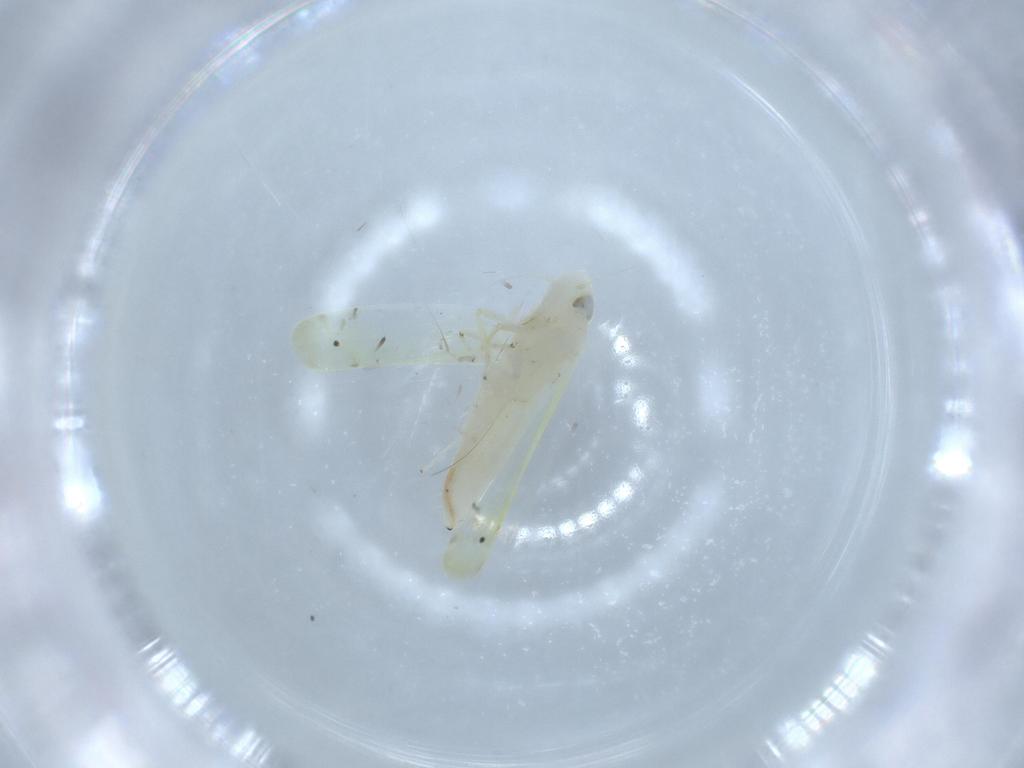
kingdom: Animalia
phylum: Arthropoda
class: Insecta
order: Hemiptera
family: Cicadellidae
